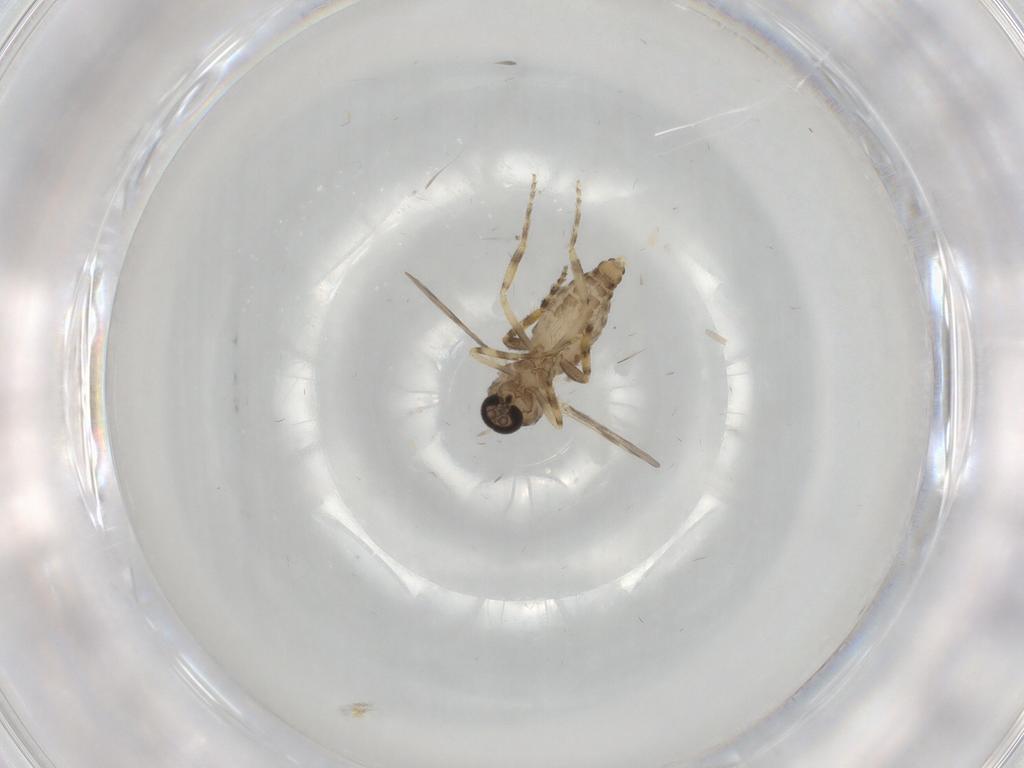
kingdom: Animalia
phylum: Arthropoda
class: Insecta
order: Diptera
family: Ceratopogonidae
